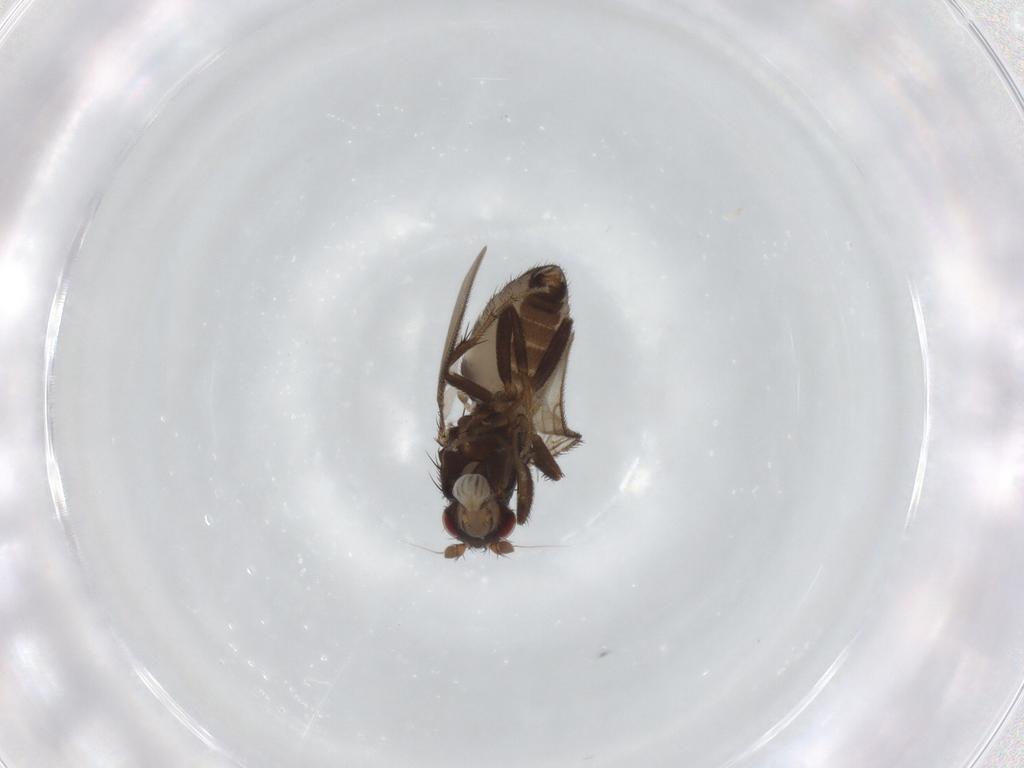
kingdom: Animalia
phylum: Arthropoda
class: Insecta
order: Diptera
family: Sphaeroceridae
